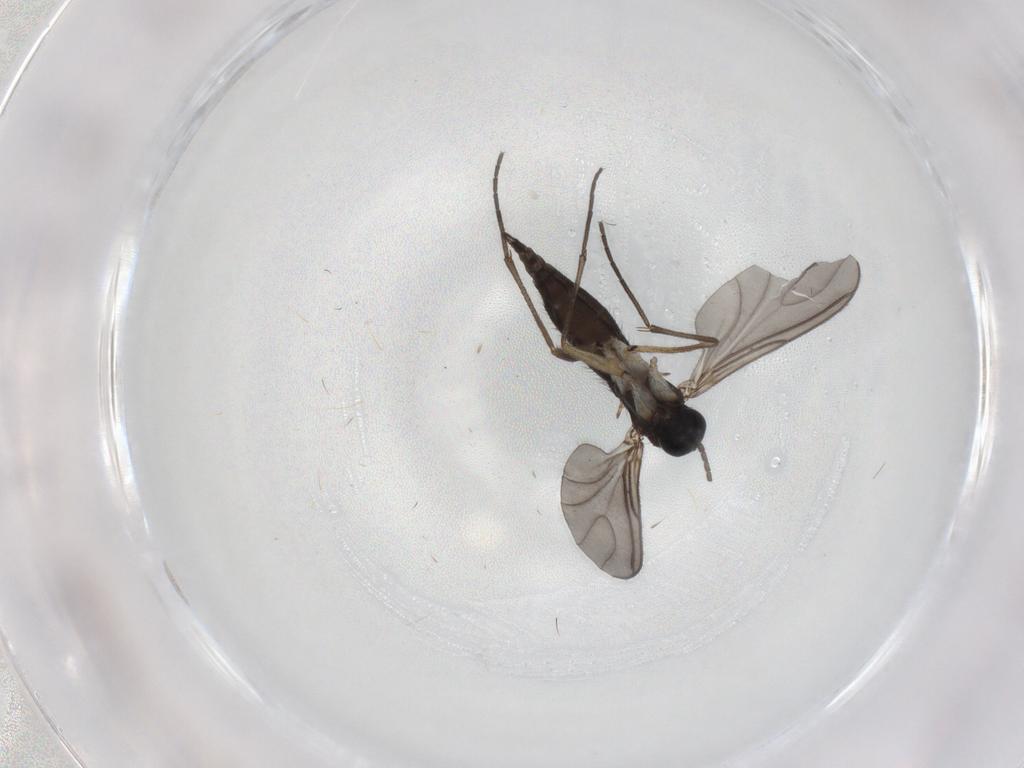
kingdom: Animalia
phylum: Arthropoda
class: Insecta
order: Diptera
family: Sciaridae
